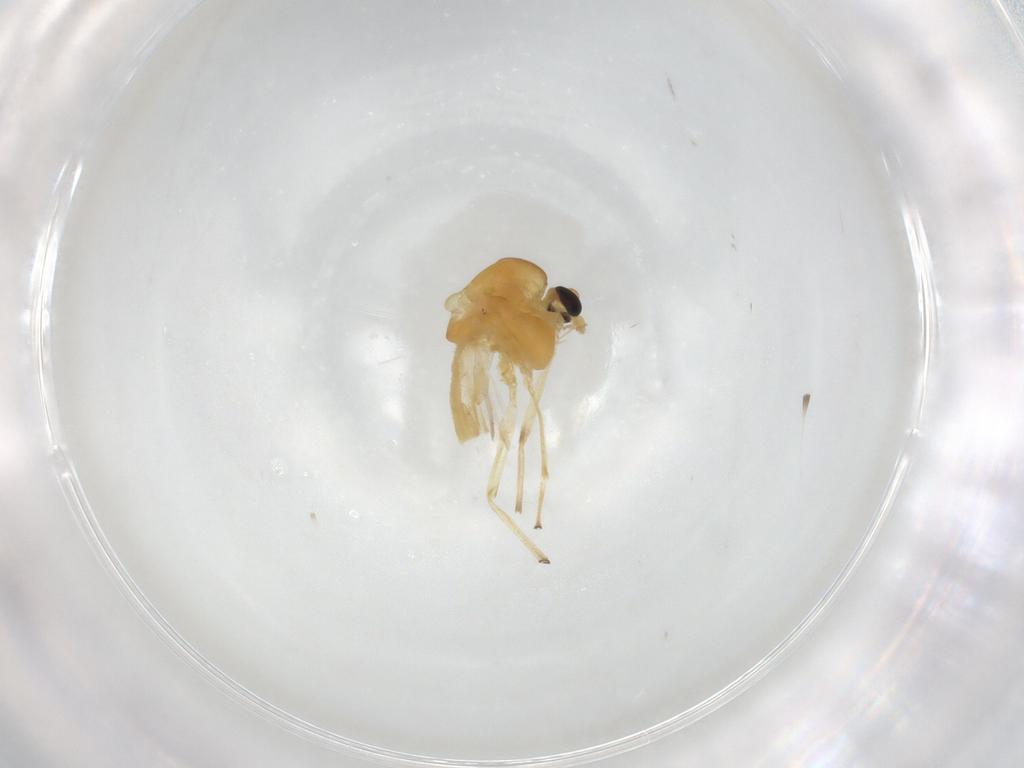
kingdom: Animalia
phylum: Arthropoda
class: Insecta
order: Diptera
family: Chironomidae
